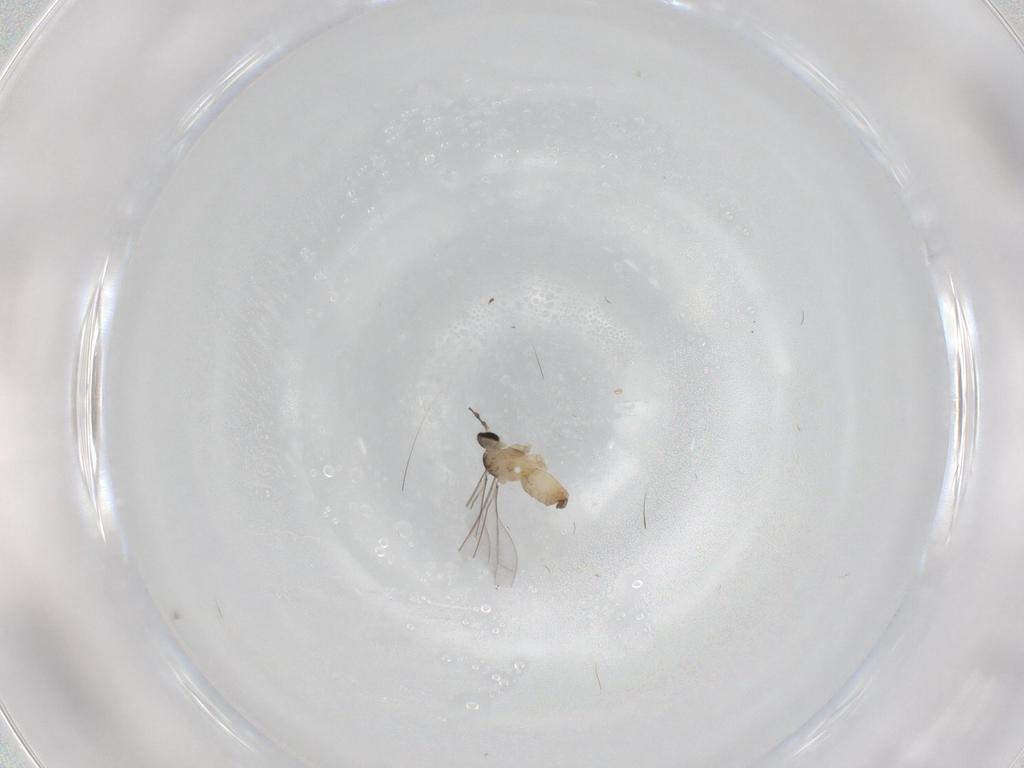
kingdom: Animalia
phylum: Arthropoda
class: Insecta
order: Diptera
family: Cecidomyiidae
